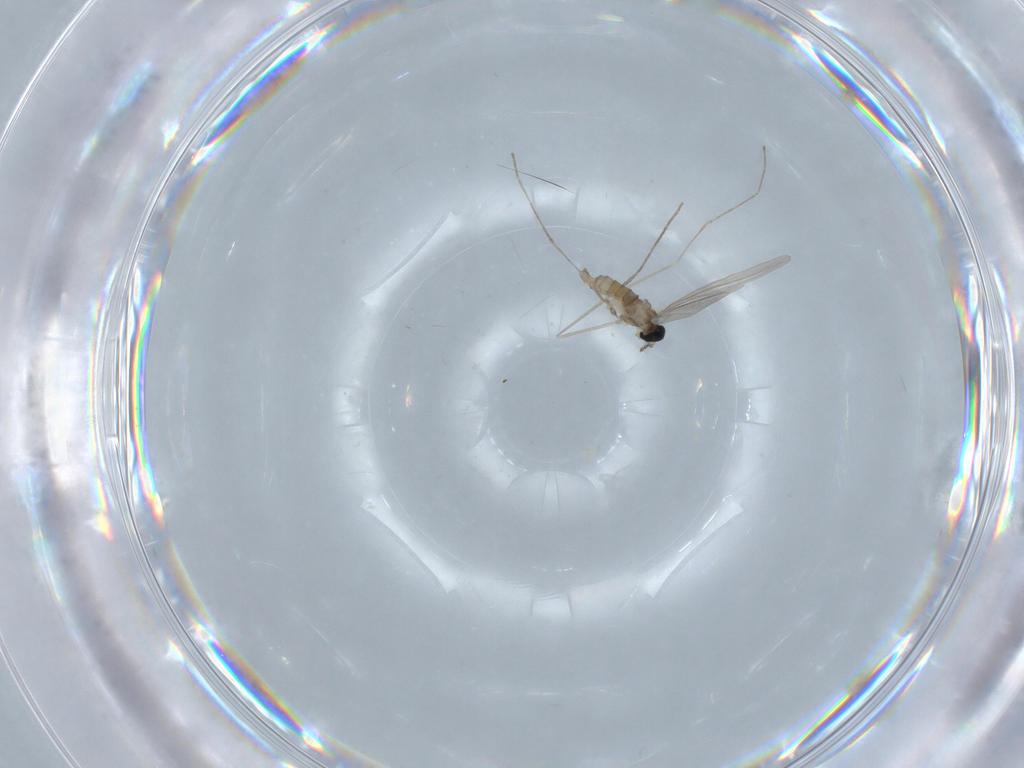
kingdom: Animalia
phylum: Arthropoda
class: Insecta
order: Diptera
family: Cecidomyiidae
